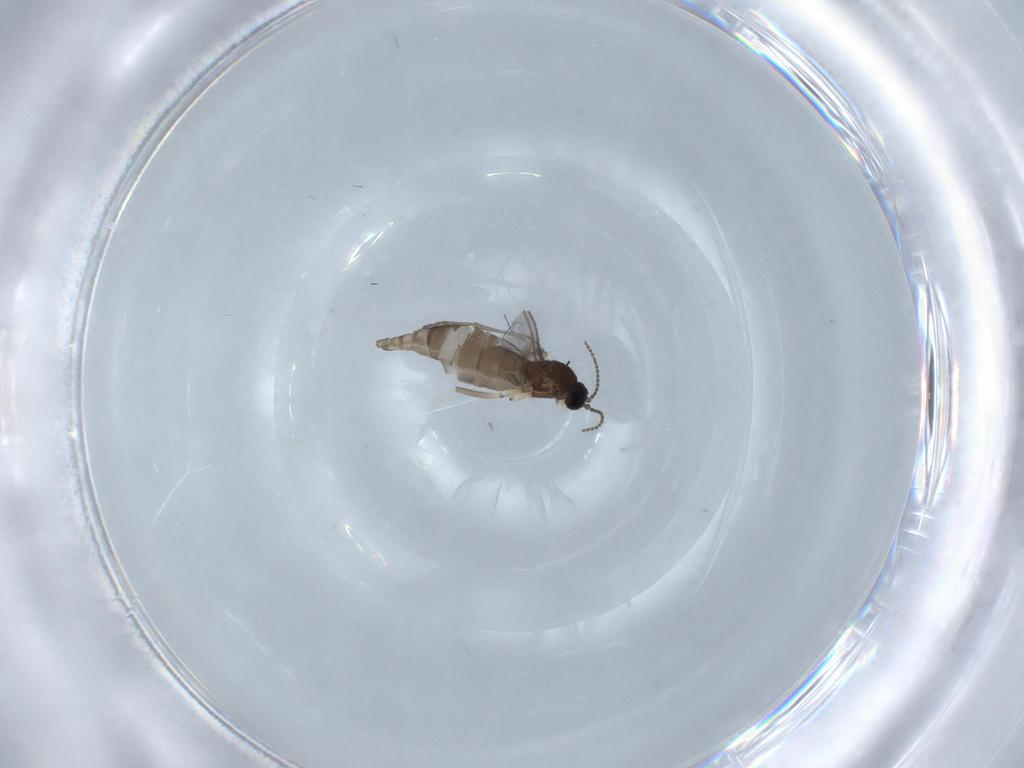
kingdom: Animalia
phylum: Arthropoda
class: Insecta
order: Diptera
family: Sciaridae
